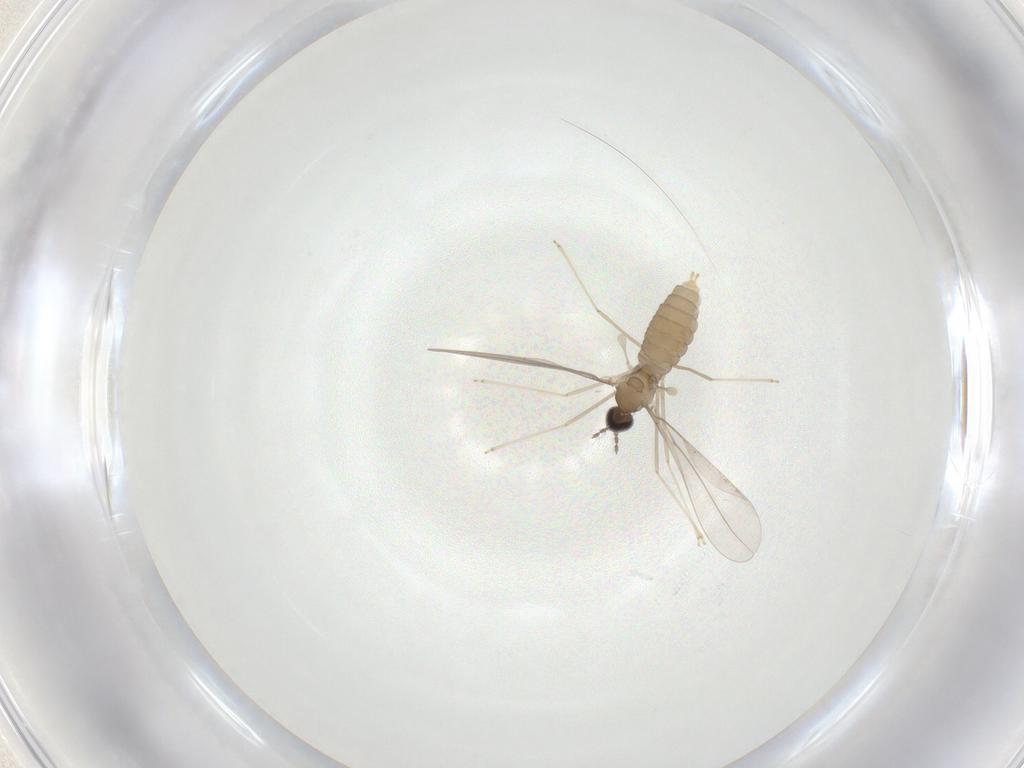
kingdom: Animalia
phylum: Arthropoda
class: Insecta
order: Diptera
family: Cecidomyiidae
